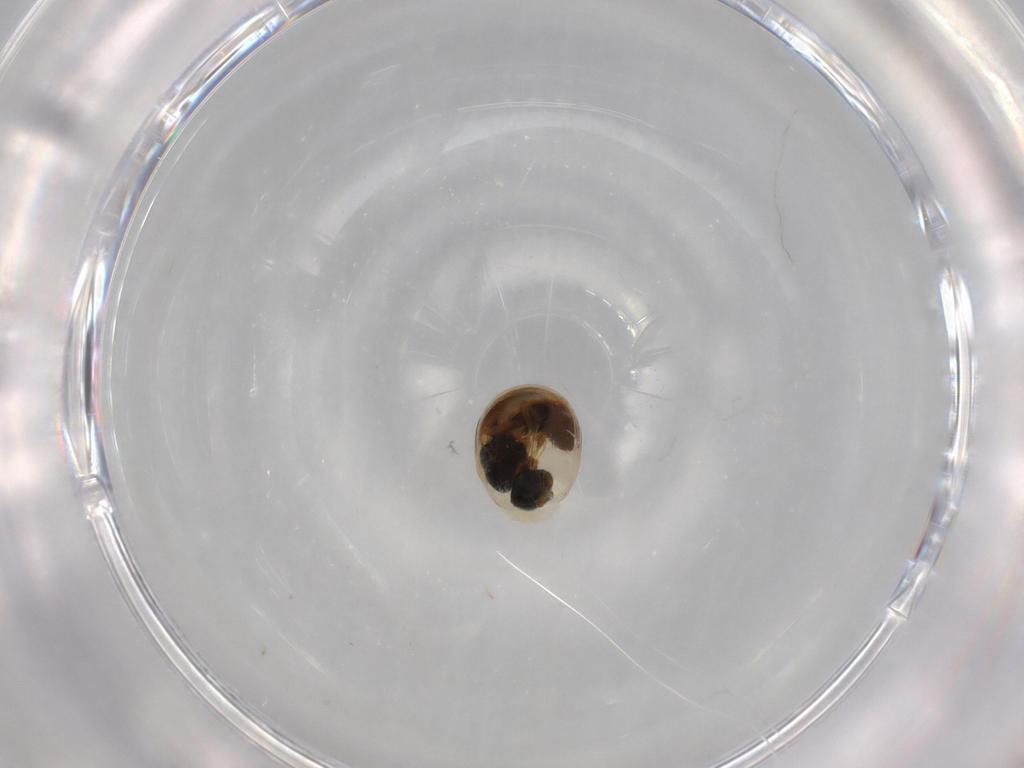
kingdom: Animalia
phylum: Arthropoda
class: Insecta
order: Hymenoptera
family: Scelionidae
